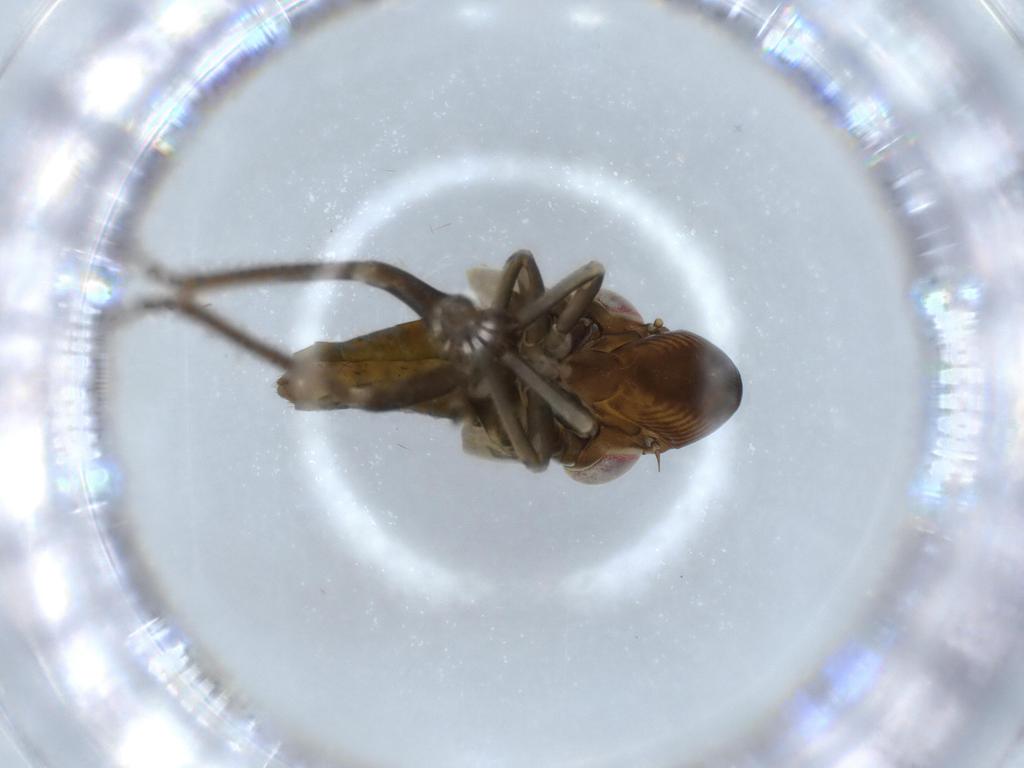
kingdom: Animalia
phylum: Arthropoda
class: Insecta
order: Hemiptera
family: Cicadellidae
